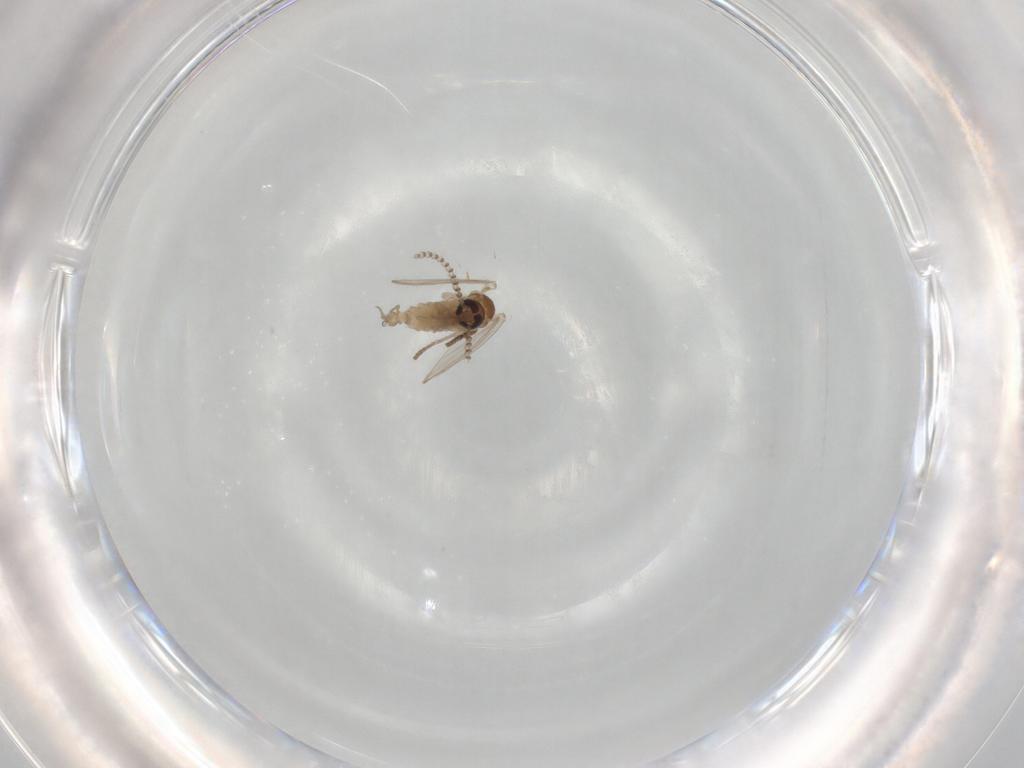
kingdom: Animalia
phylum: Arthropoda
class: Insecta
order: Diptera
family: Psychodidae
